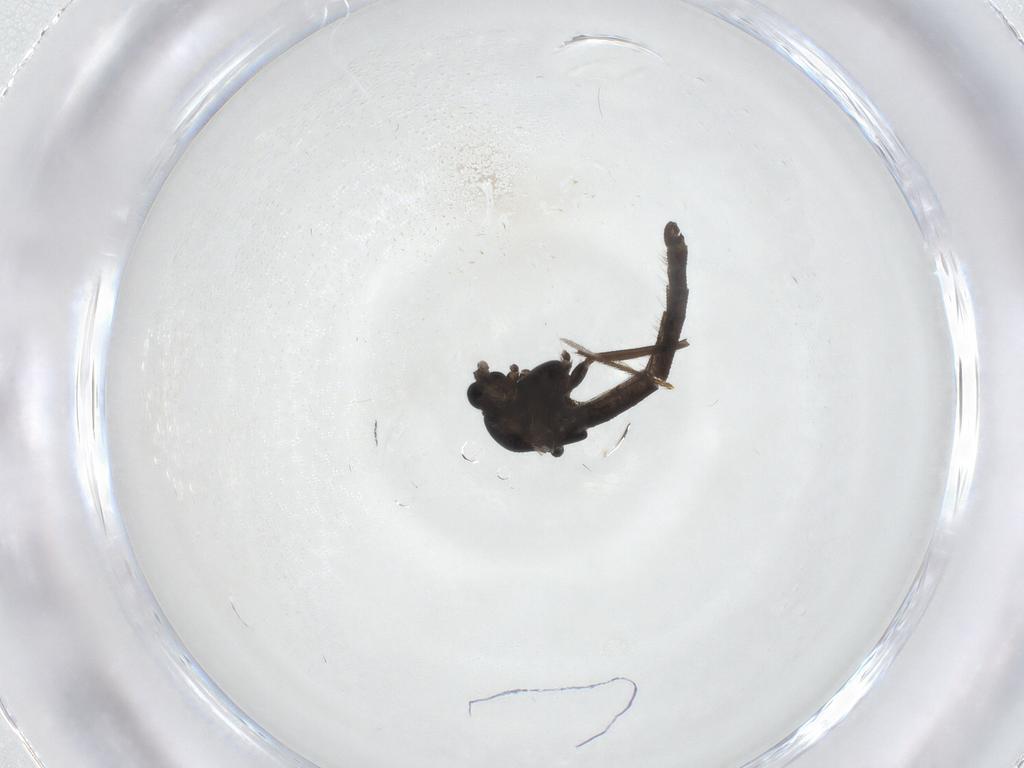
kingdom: Animalia
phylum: Arthropoda
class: Insecta
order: Diptera
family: Chironomidae
